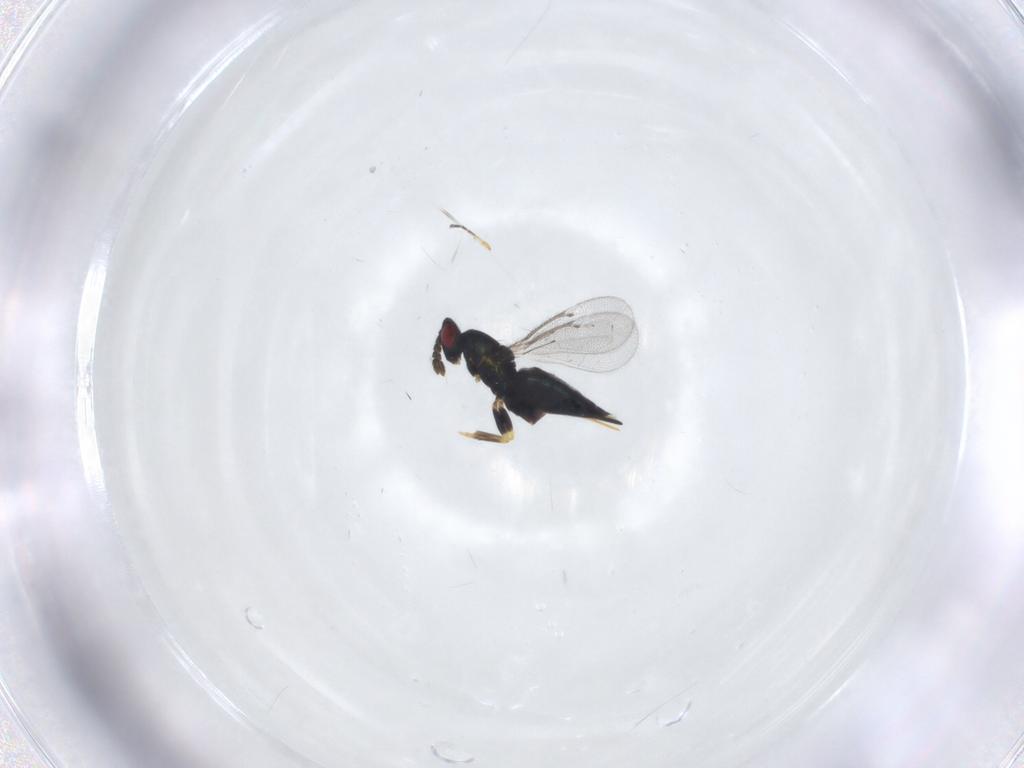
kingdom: Animalia
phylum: Arthropoda
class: Insecta
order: Hymenoptera
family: Eulophidae
